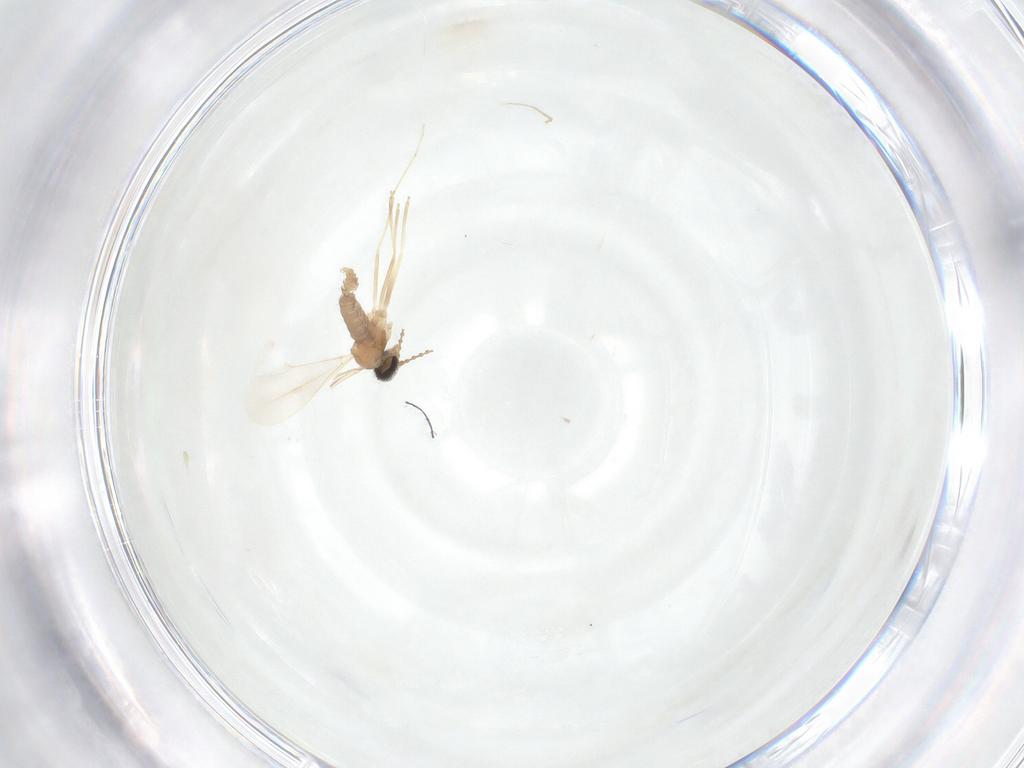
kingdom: Animalia
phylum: Arthropoda
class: Insecta
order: Diptera
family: Cecidomyiidae
